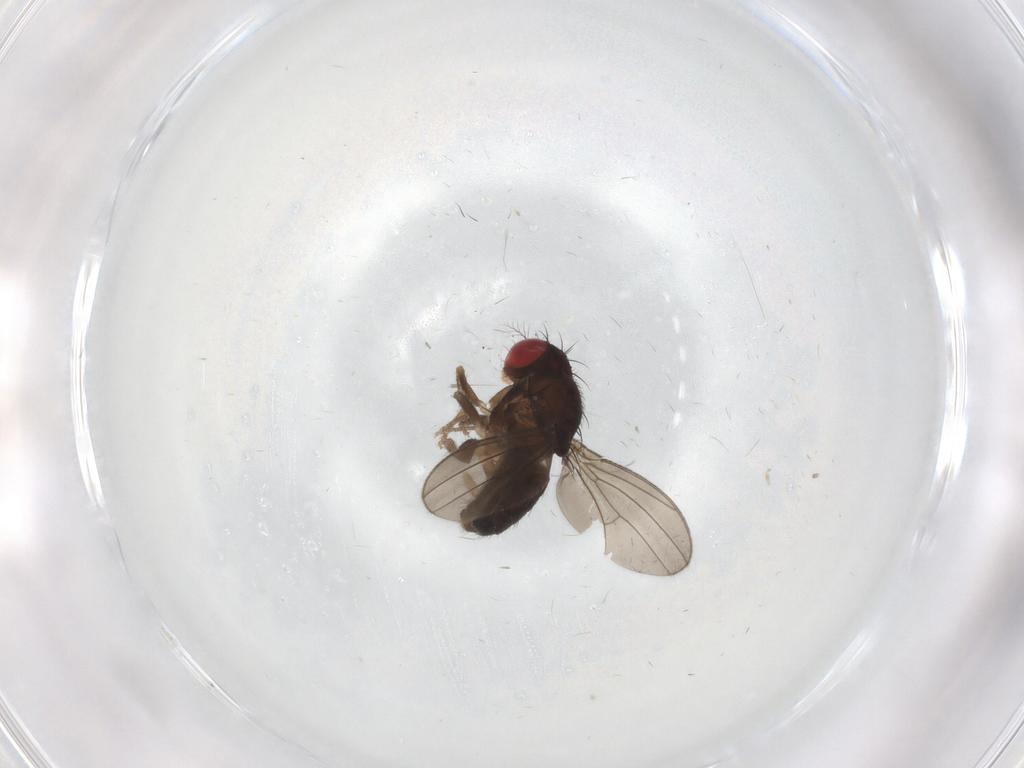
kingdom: Animalia
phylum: Arthropoda
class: Insecta
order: Diptera
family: Drosophilidae
